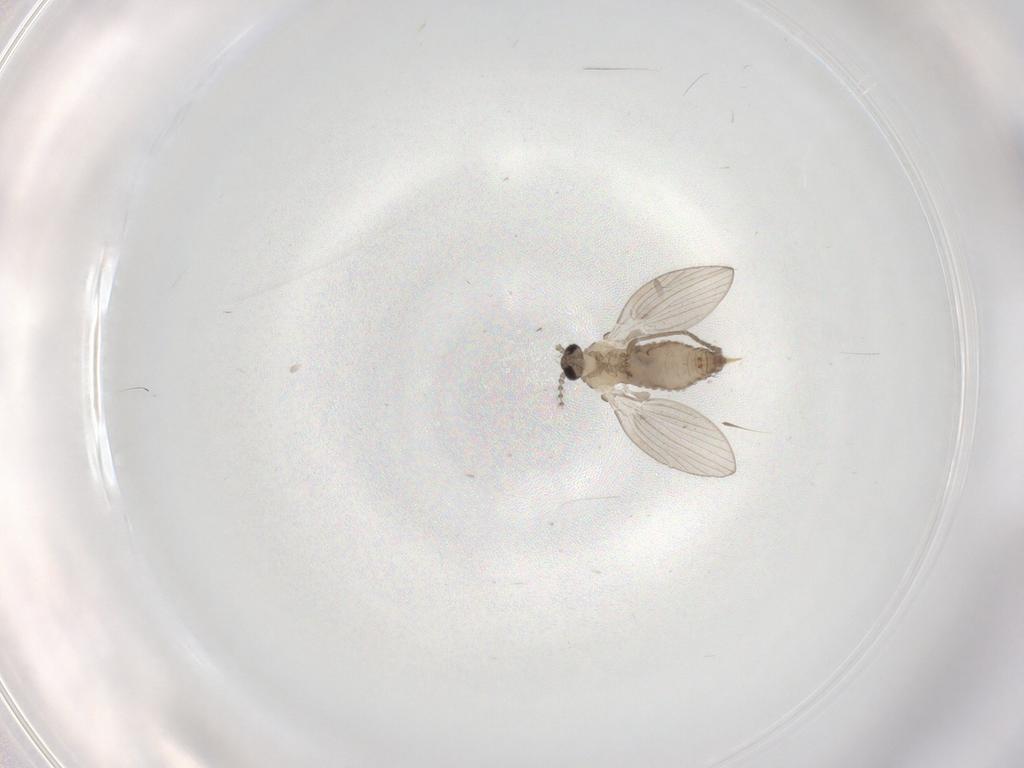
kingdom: Animalia
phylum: Arthropoda
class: Insecta
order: Diptera
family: Psychodidae
